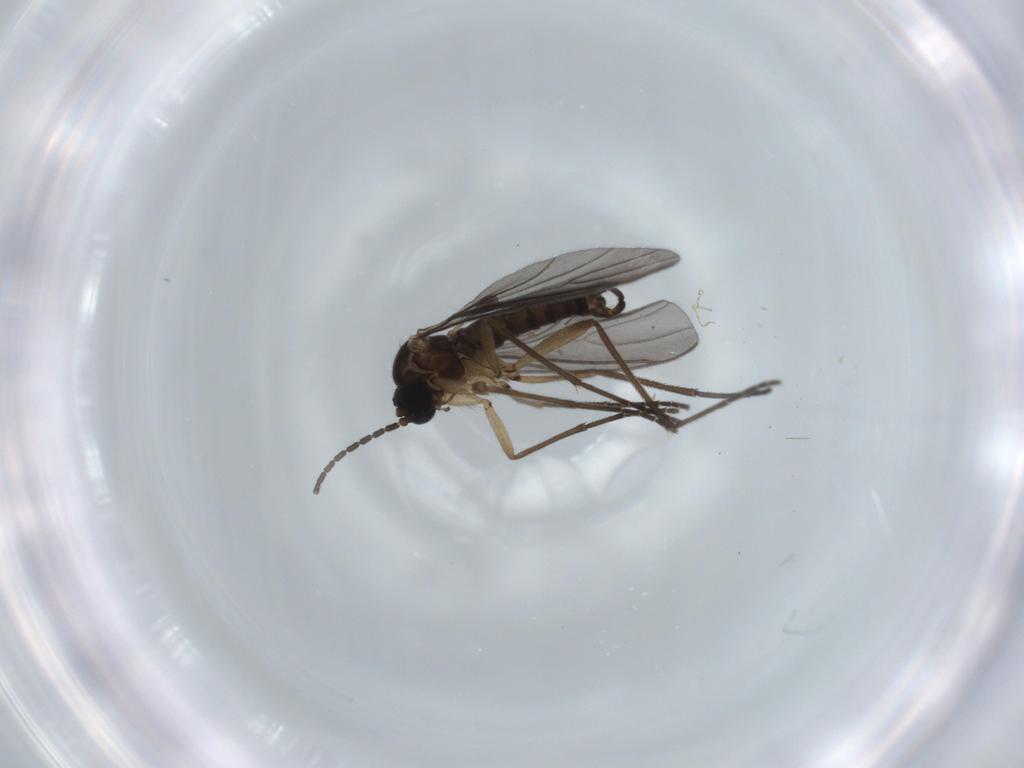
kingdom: Animalia
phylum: Arthropoda
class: Insecta
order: Diptera
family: Sciaridae
